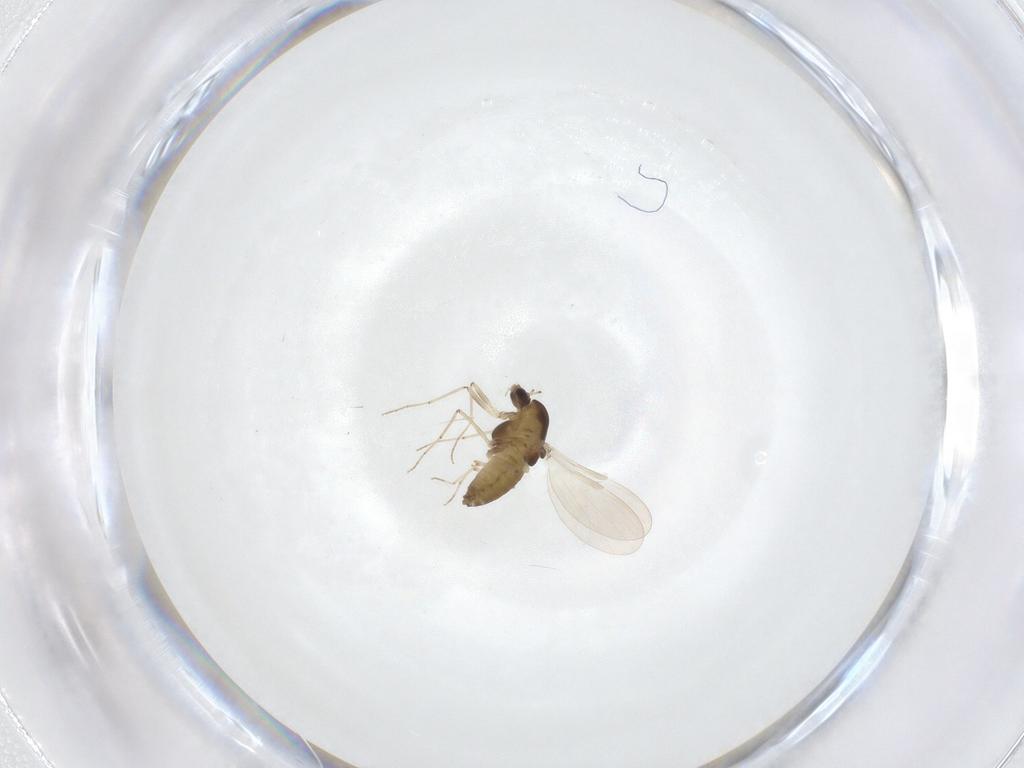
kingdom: Animalia
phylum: Arthropoda
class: Insecta
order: Diptera
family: Chironomidae
